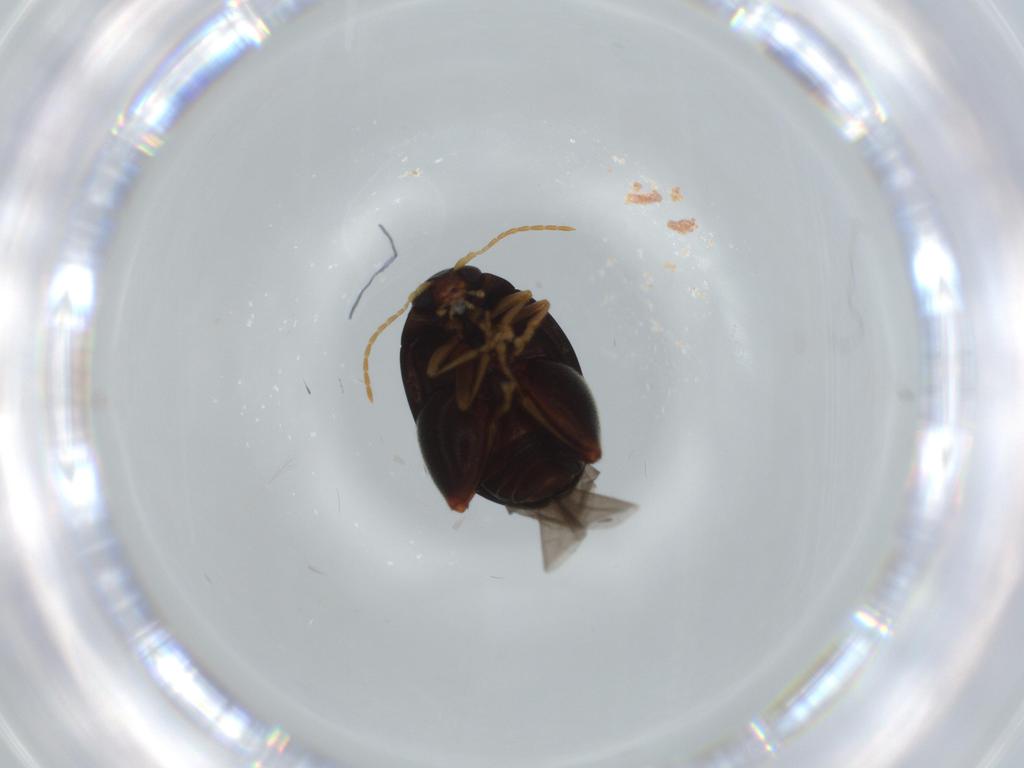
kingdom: Animalia
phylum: Arthropoda
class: Insecta
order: Coleoptera
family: Chrysomelidae
